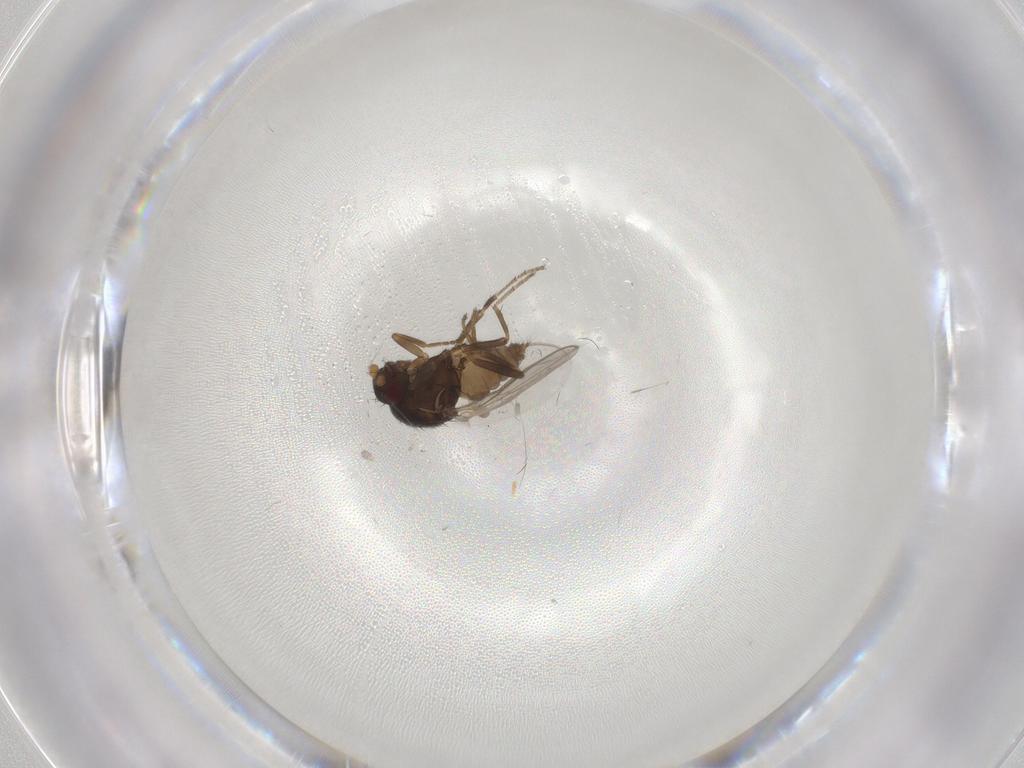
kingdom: Animalia
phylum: Arthropoda
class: Insecta
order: Diptera
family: Sphaeroceridae
